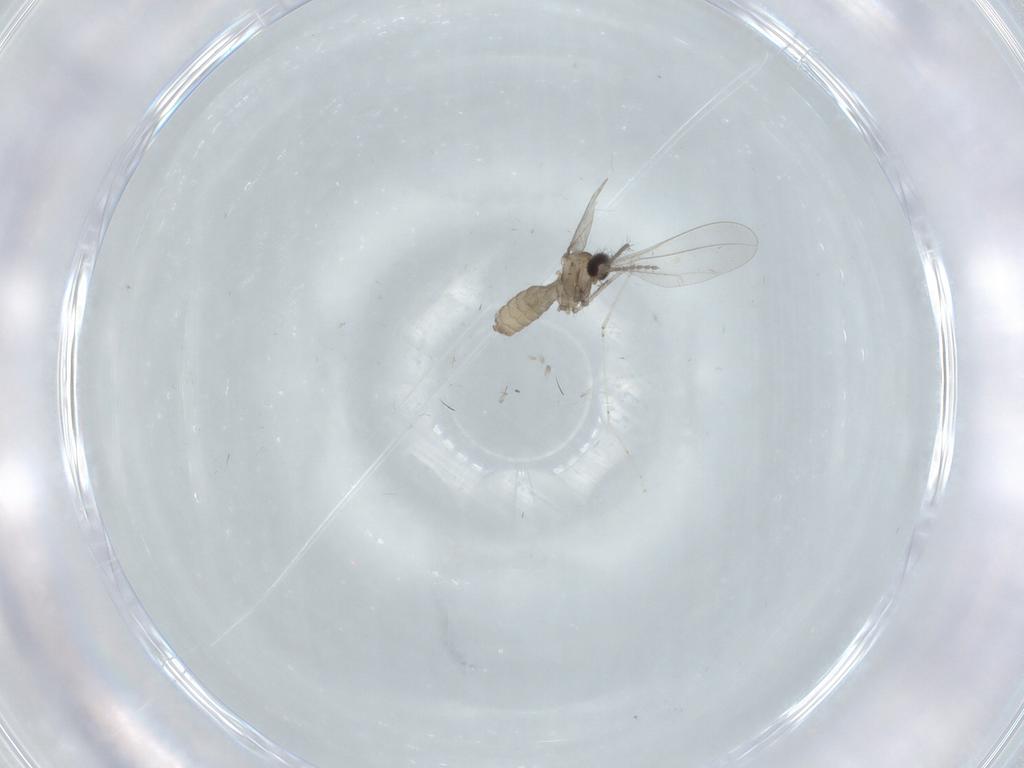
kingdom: Animalia
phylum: Arthropoda
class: Insecta
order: Diptera
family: Cecidomyiidae
